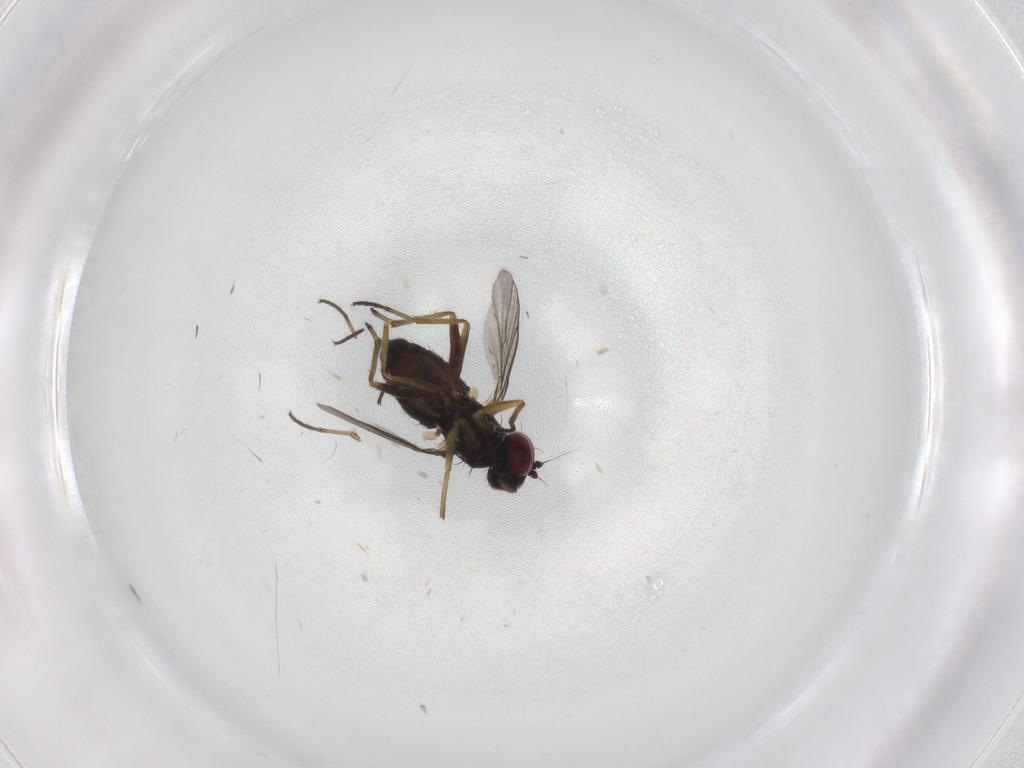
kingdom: Animalia
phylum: Arthropoda
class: Insecta
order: Diptera
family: Dolichopodidae
